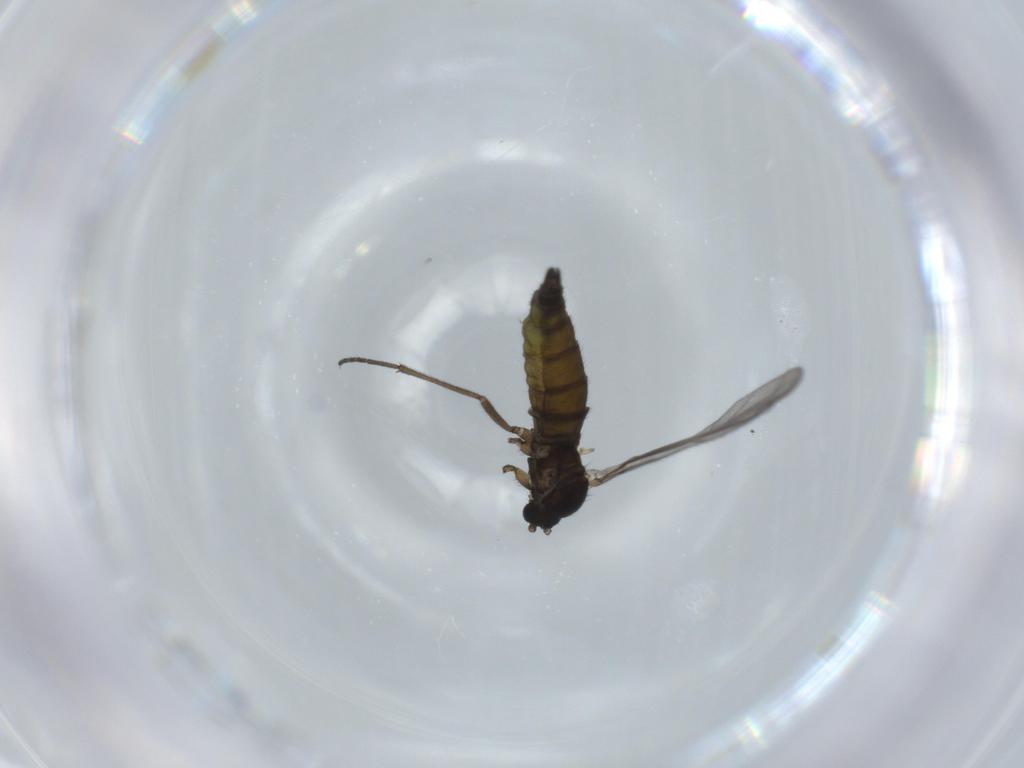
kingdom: Animalia
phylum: Arthropoda
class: Insecta
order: Diptera
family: Sciaridae
